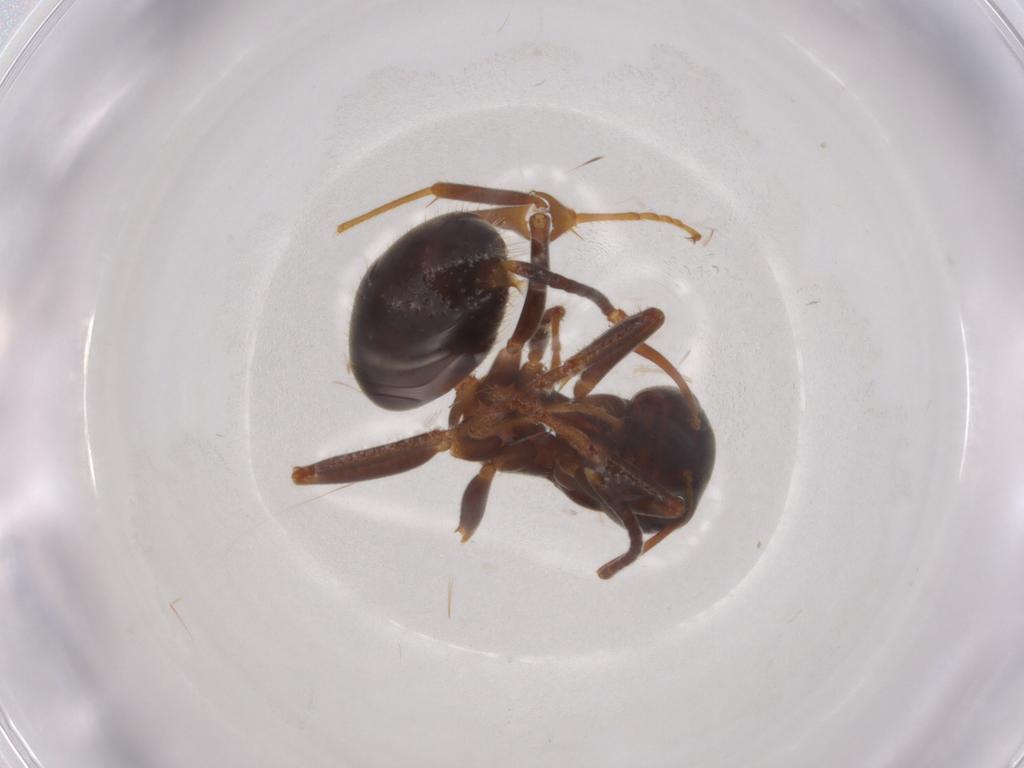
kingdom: Animalia
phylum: Arthropoda
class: Insecta
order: Hymenoptera
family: Formicidae
